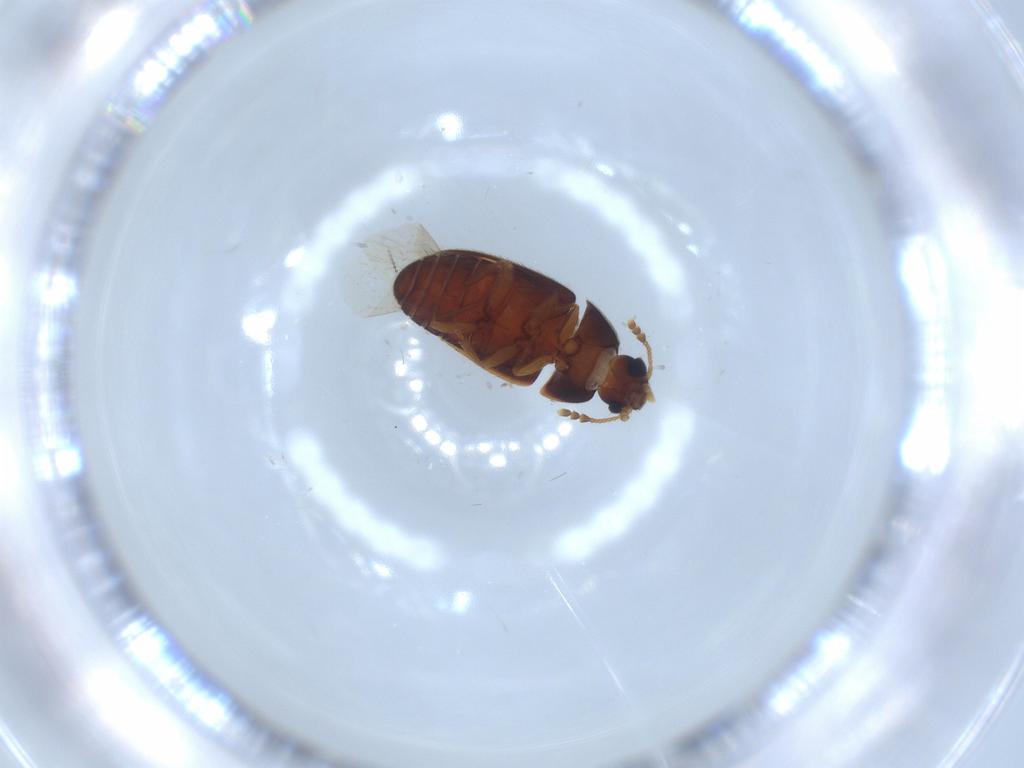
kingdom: Animalia
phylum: Arthropoda
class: Insecta
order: Coleoptera
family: Mycetophagidae
